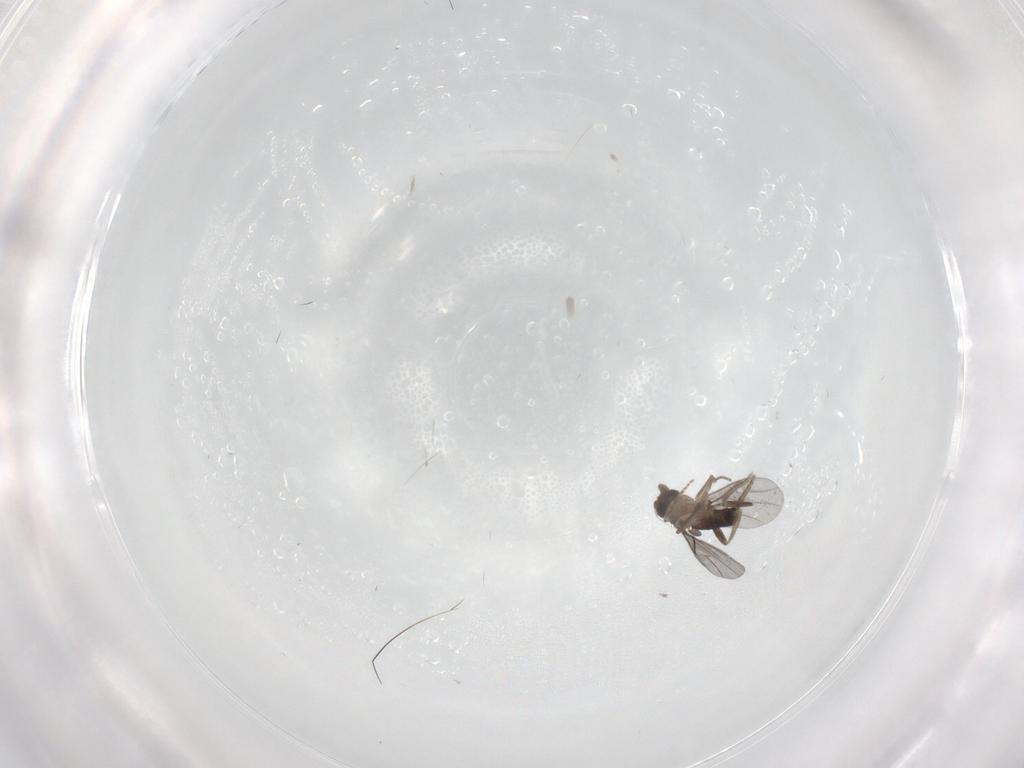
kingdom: Animalia
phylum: Arthropoda
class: Insecta
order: Diptera
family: Phoridae
